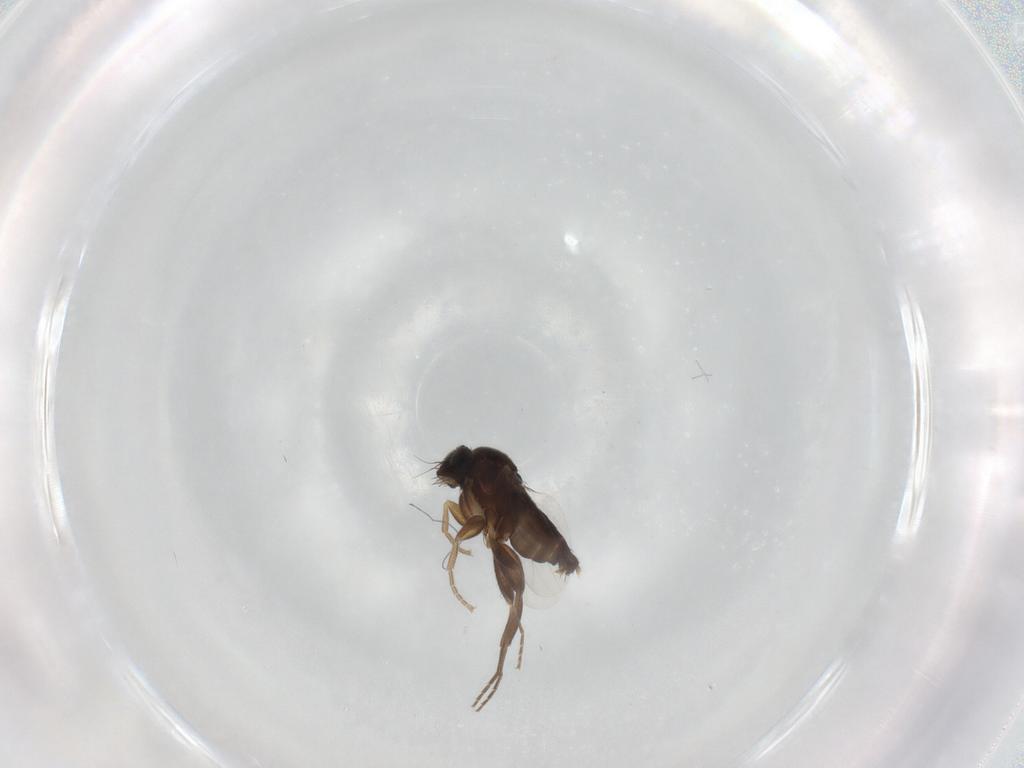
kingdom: Animalia
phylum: Arthropoda
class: Insecta
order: Diptera
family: Phoridae
